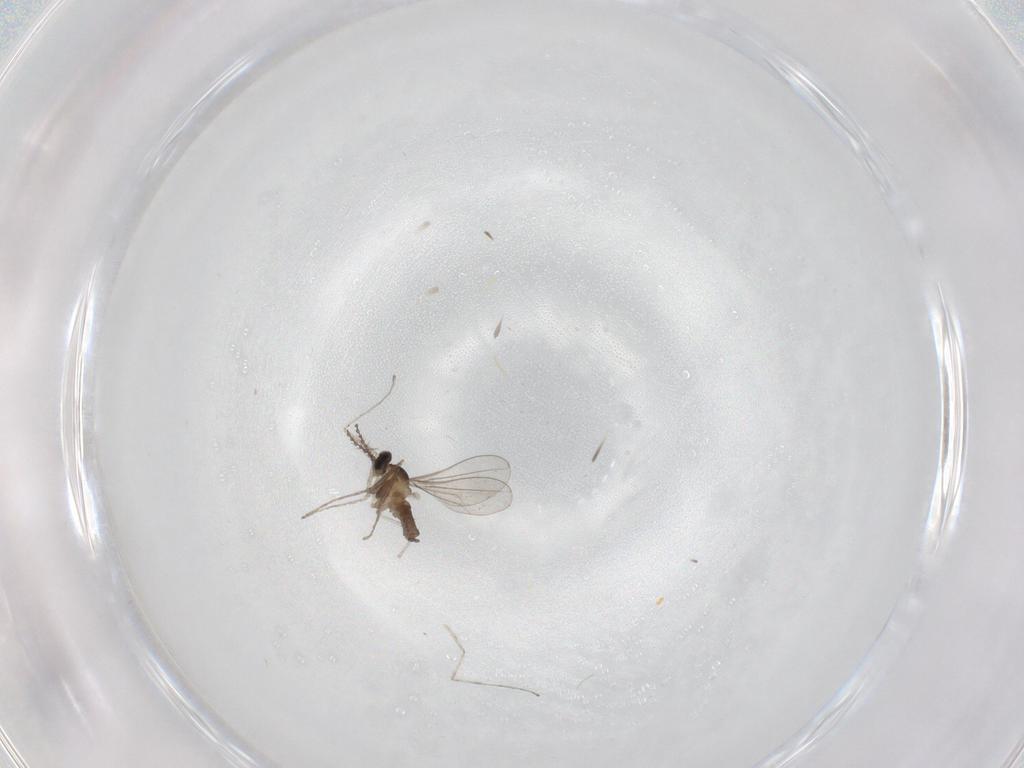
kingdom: Animalia
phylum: Arthropoda
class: Insecta
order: Diptera
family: Cecidomyiidae
